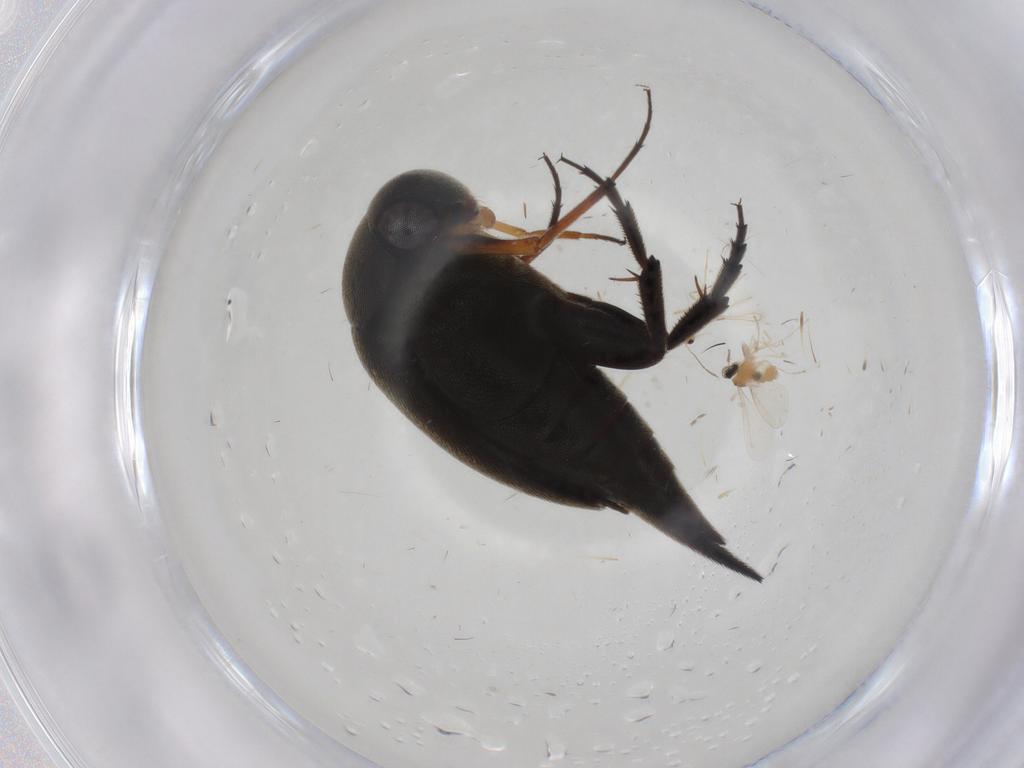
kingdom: Animalia
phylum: Arthropoda
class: Insecta
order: Coleoptera
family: Mordellidae
